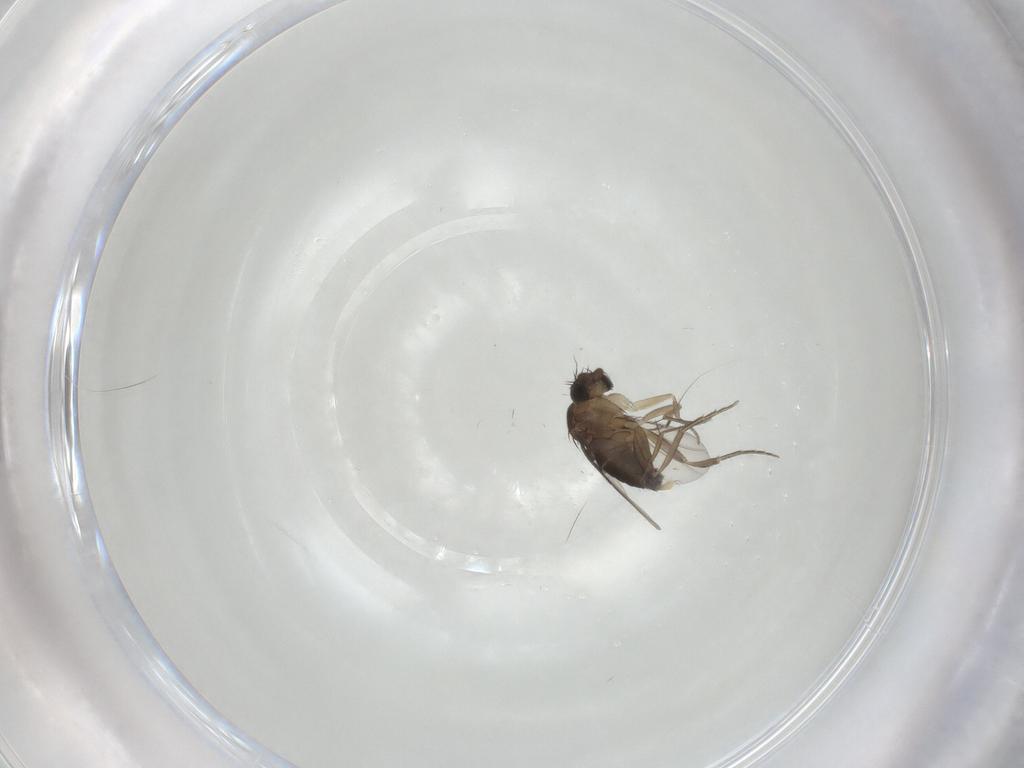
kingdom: Animalia
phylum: Arthropoda
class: Insecta
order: Diptera
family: Phoridae
